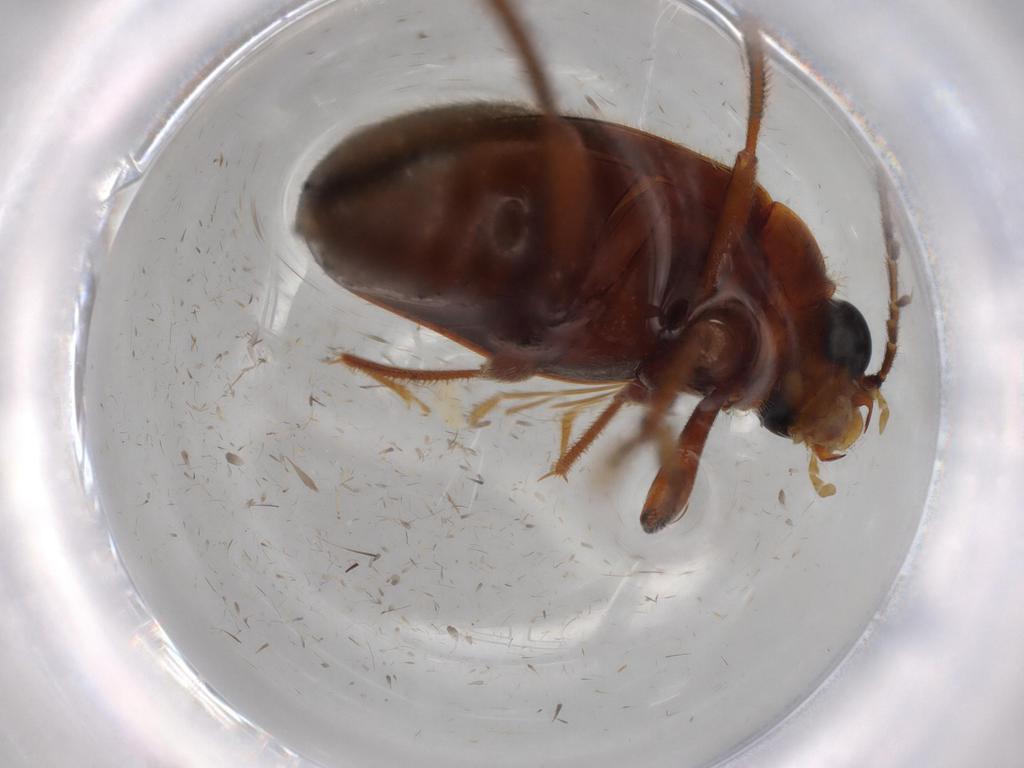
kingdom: Animalia
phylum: Arthropoda
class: Insecta
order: Coleoptera
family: Ptilodactylidae
